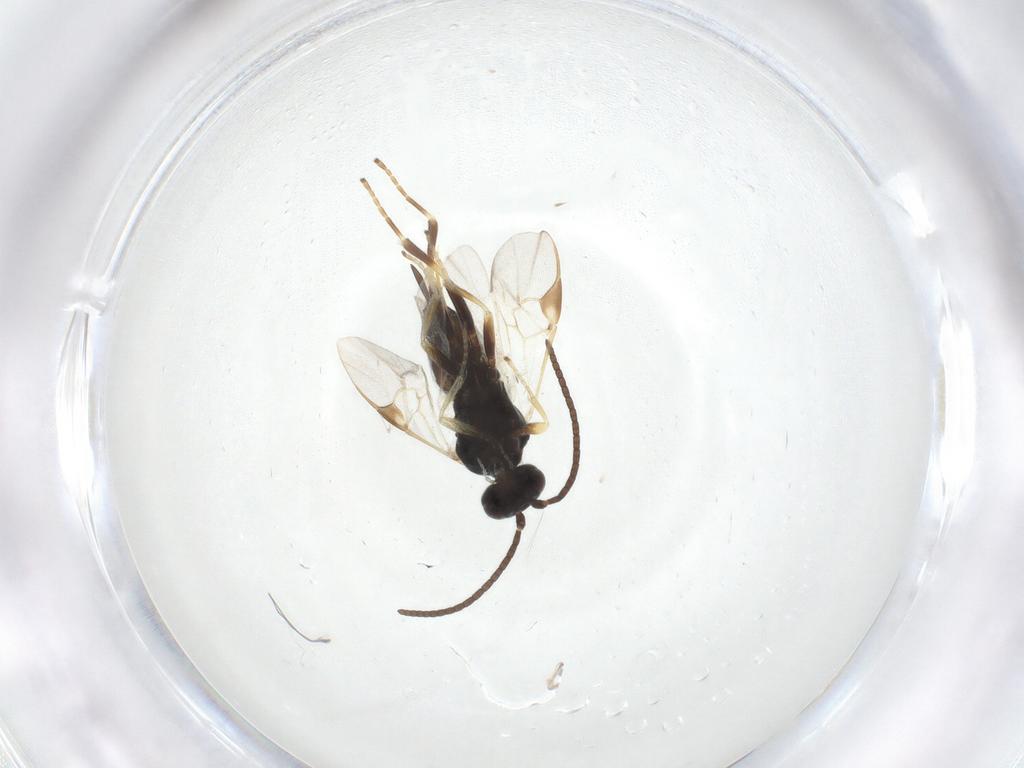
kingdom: Animalia
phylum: Arthropoda
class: Insecta
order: Hymenoptera
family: Braconidae
